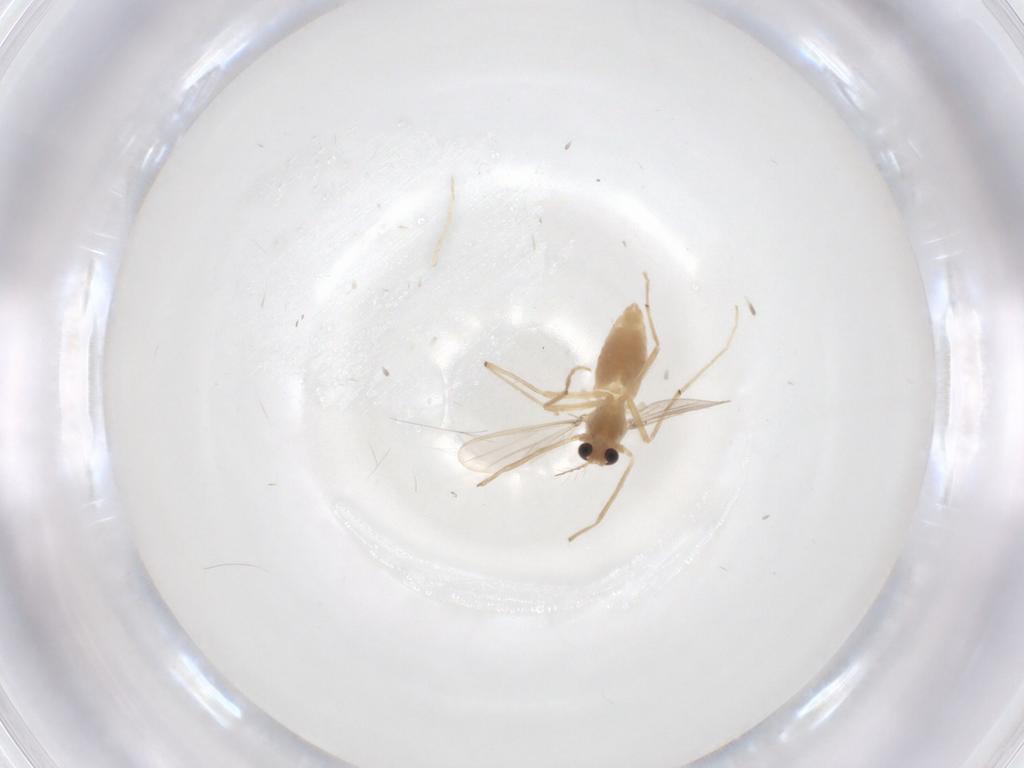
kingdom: Animalia
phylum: Arthropoda
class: Insecta
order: Diptera
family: Chironomidae
